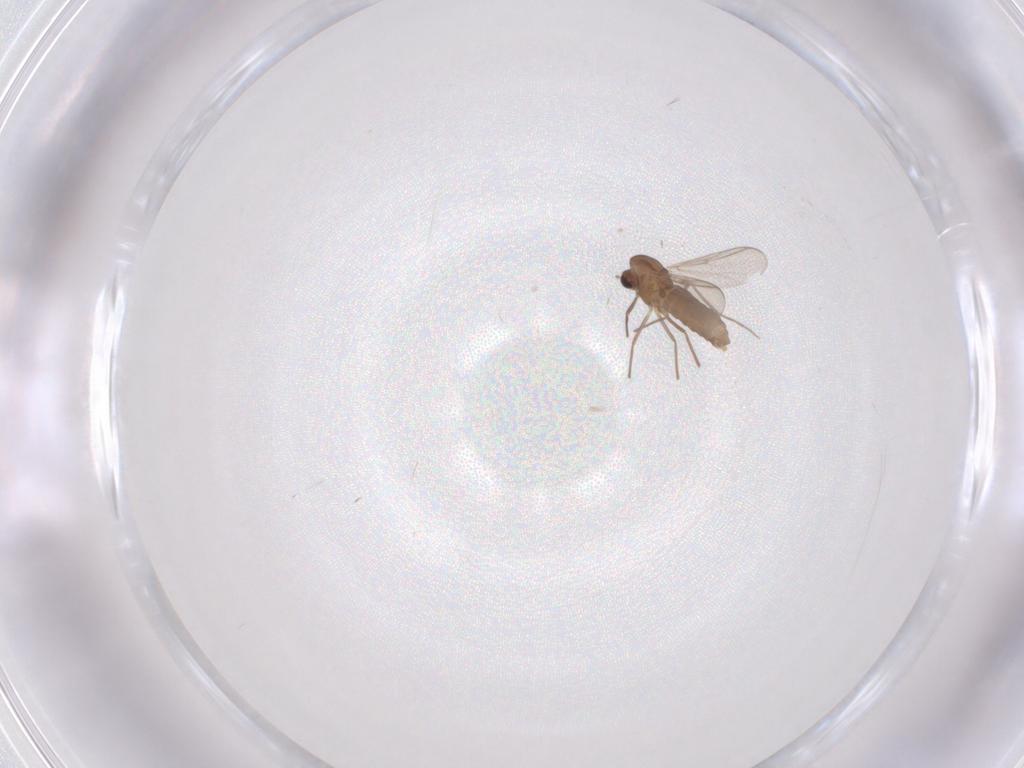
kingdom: Animalia
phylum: Arthropoda
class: Insecta
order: Diptera
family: Chironomidae
